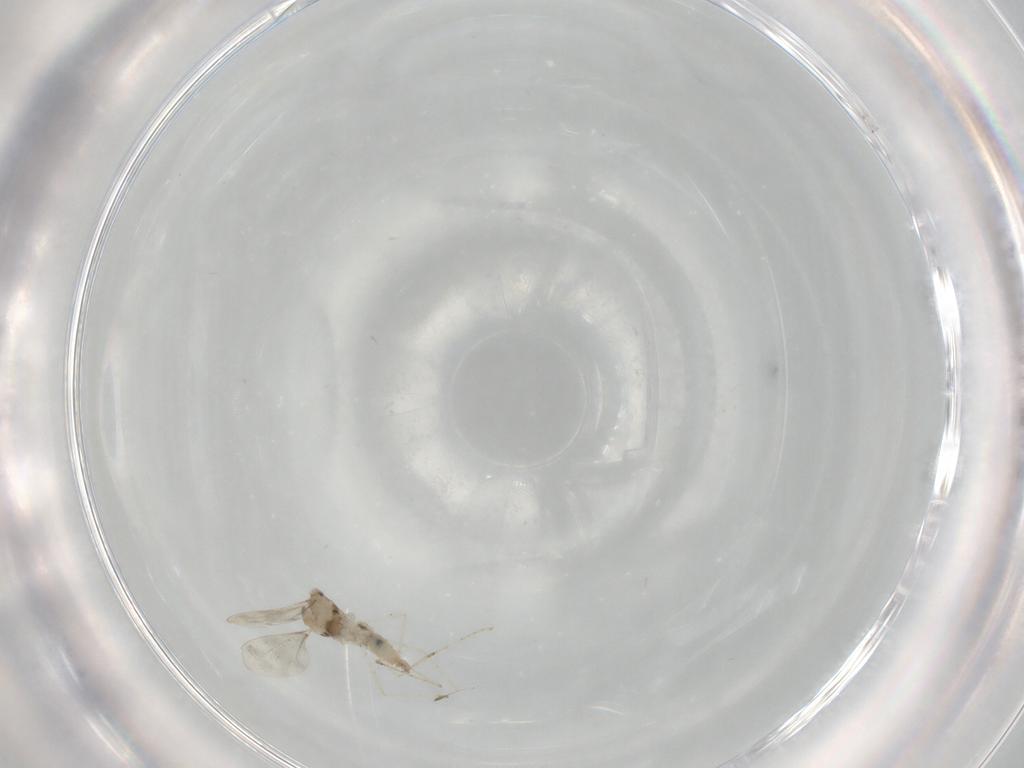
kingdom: Animalia
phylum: Arthropoda
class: Insecta
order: Diptera
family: Cecidomyiidae
